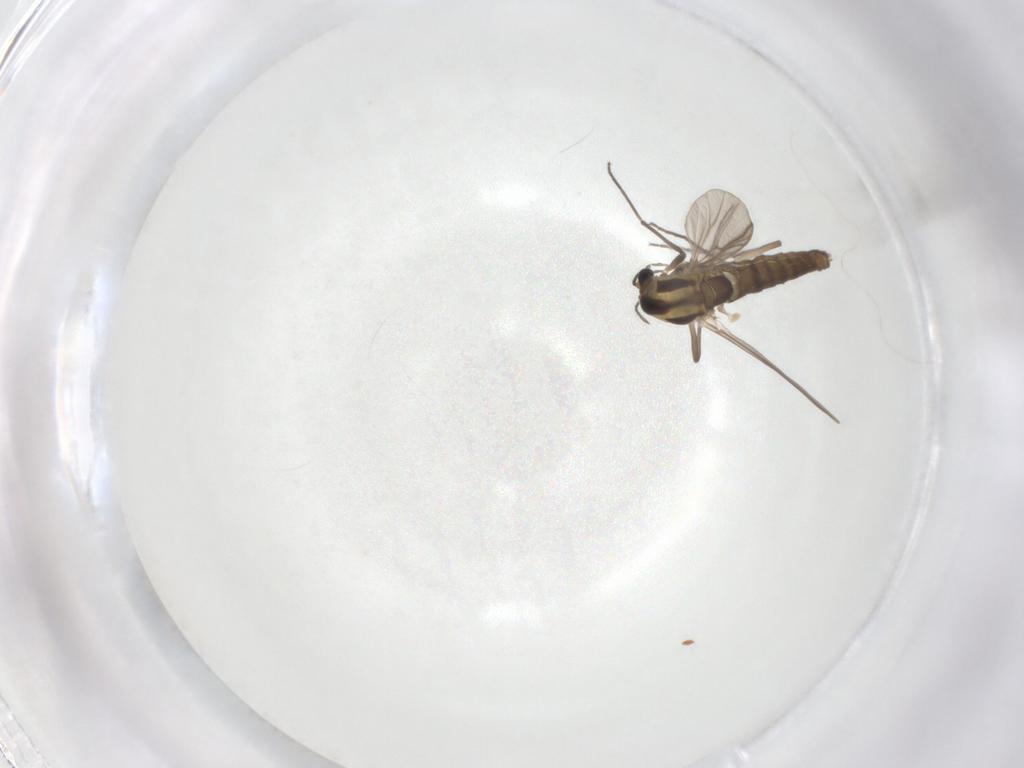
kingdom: Animalia
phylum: Arthropoda
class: Insecta
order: Diptera
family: Chironomidae
